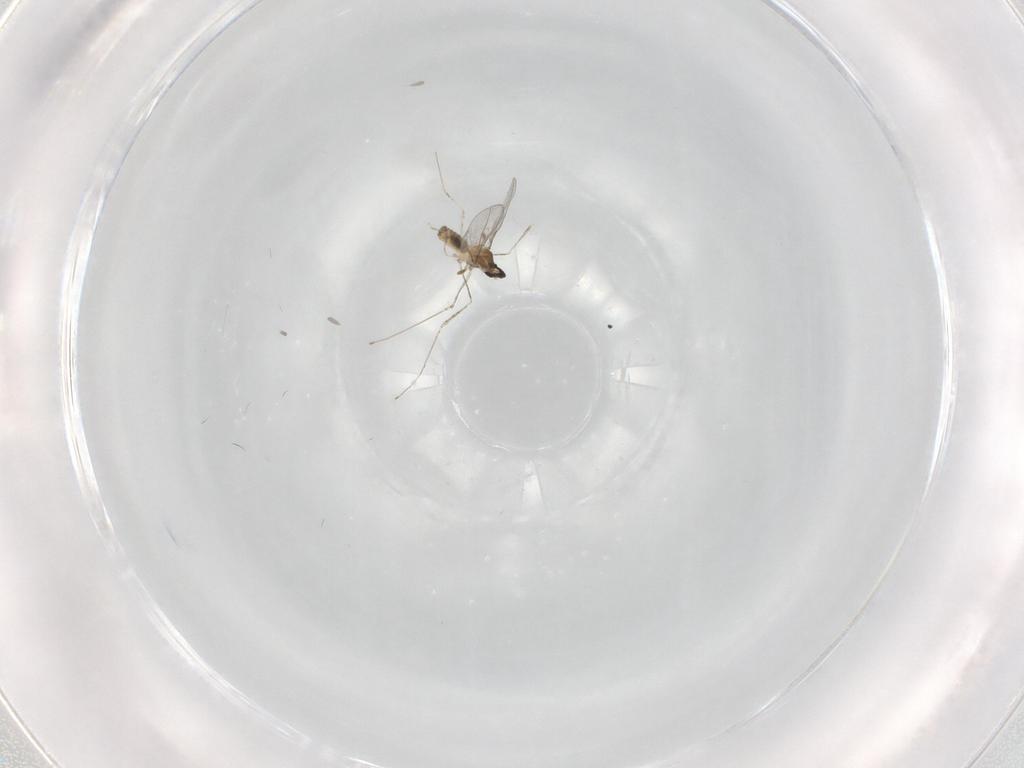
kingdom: Animalia
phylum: Arthropoda
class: Insecta
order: Diptera
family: Cecidomyiidae
